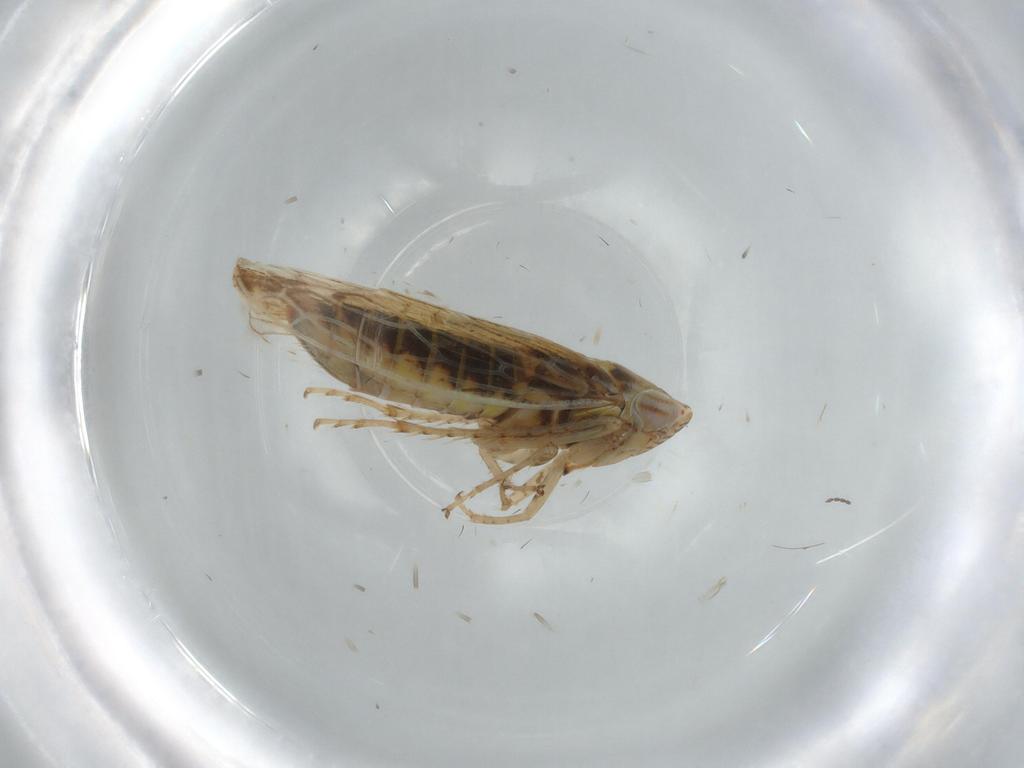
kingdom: Animalia
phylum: Arthropoda
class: Insecta
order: Hemiptera
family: Cicadellidae
